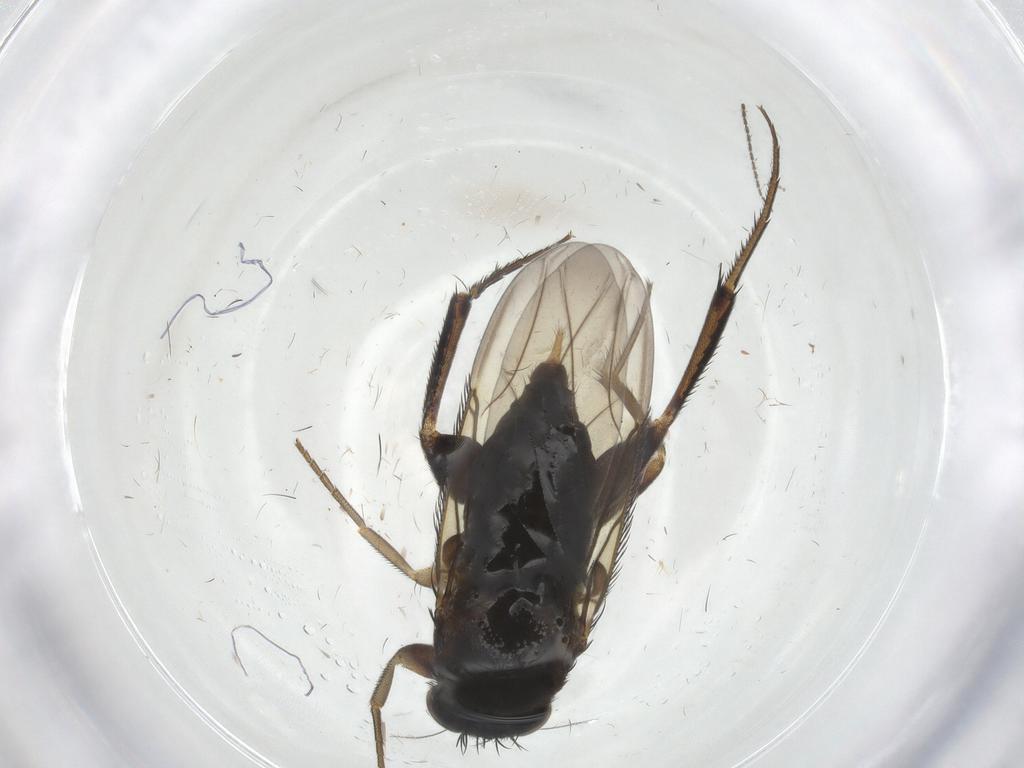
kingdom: Animalia
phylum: Arthropoda
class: Insecta
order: Diptera
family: Phoridae
